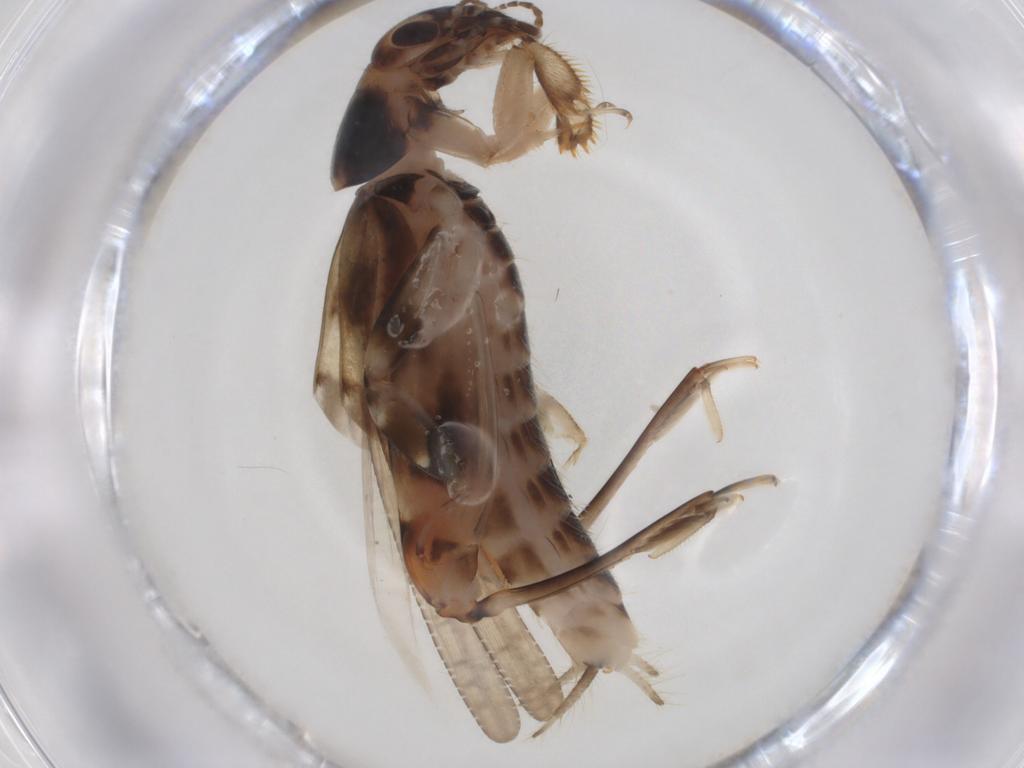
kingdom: Animalia
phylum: Arthropoda
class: Insecta
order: Orthoptera
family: Tridactylidae
